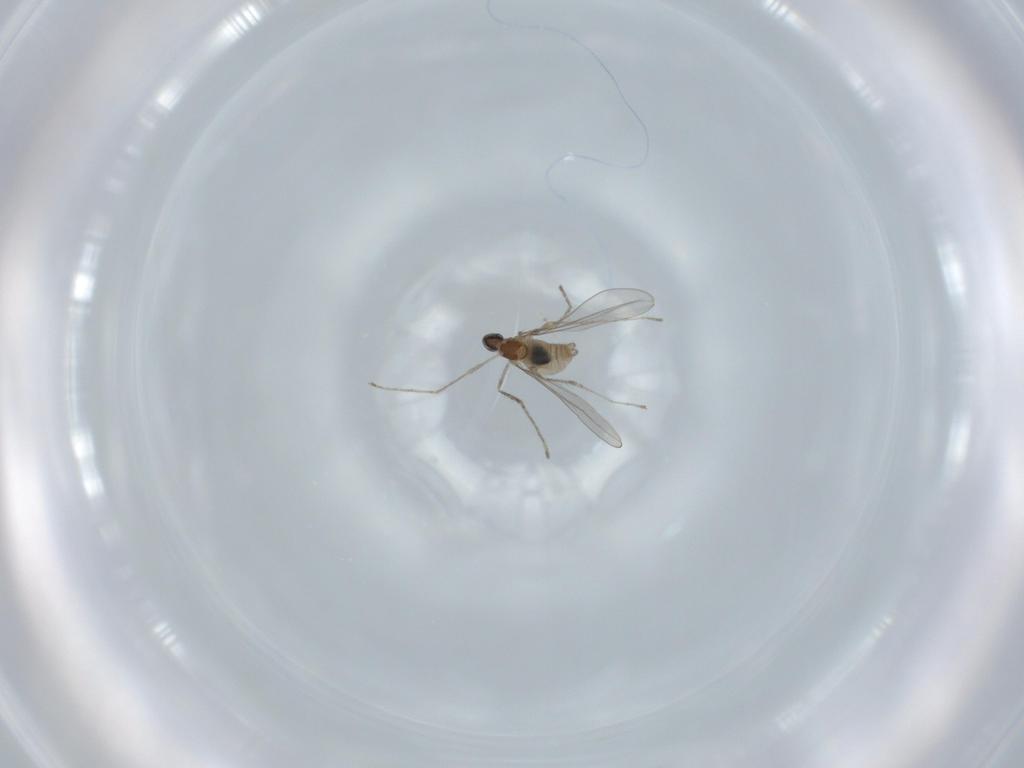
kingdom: Animalia
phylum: Arthropoda
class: Insecta
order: Diptera
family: Cecidomyiidae
